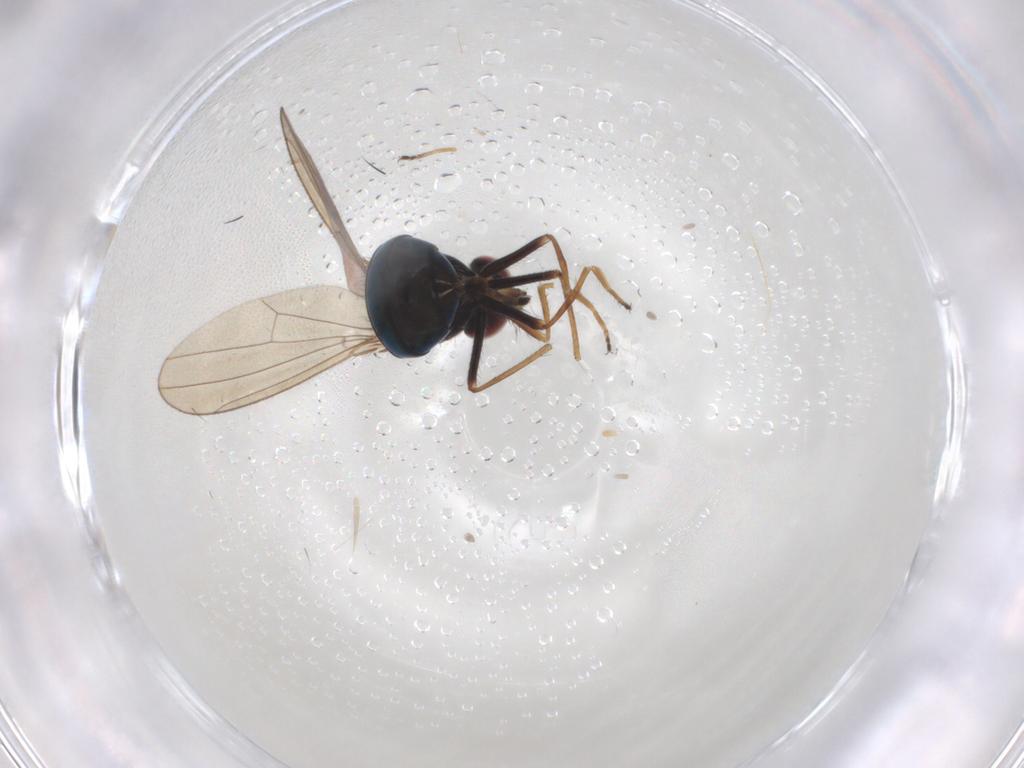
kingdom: Animalia
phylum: Arthropoda
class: Insecta
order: Diptera
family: Ephydridae
